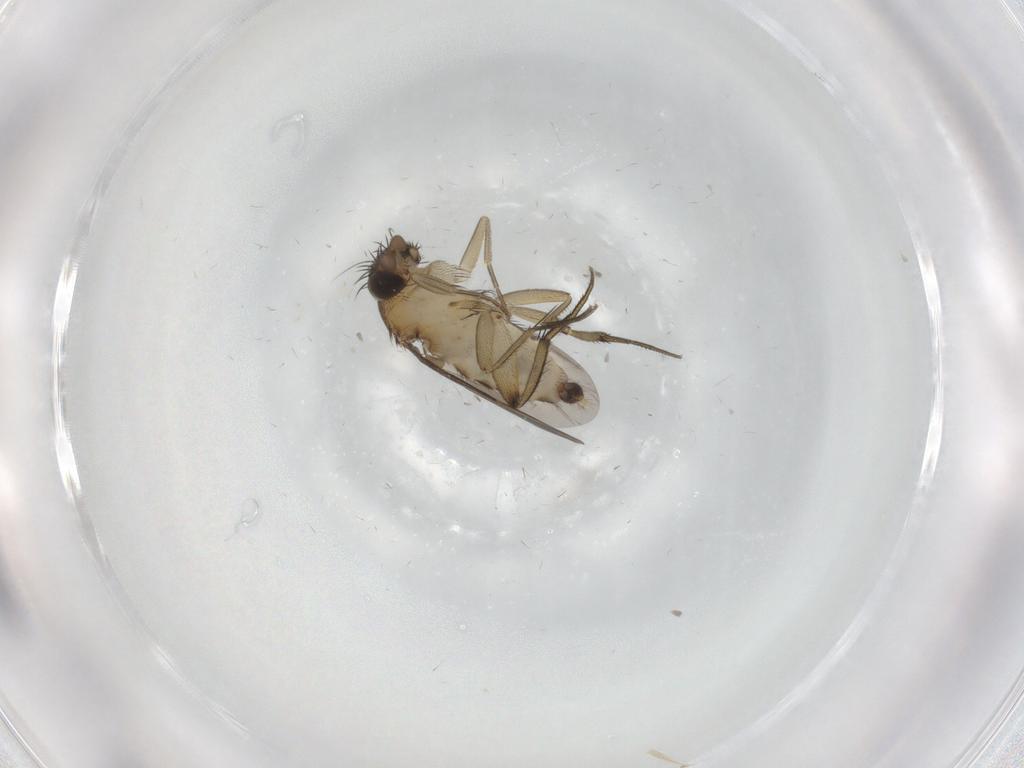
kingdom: Animalia
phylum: Arthropoda
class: Insecta
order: Diptera
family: Phoridae
